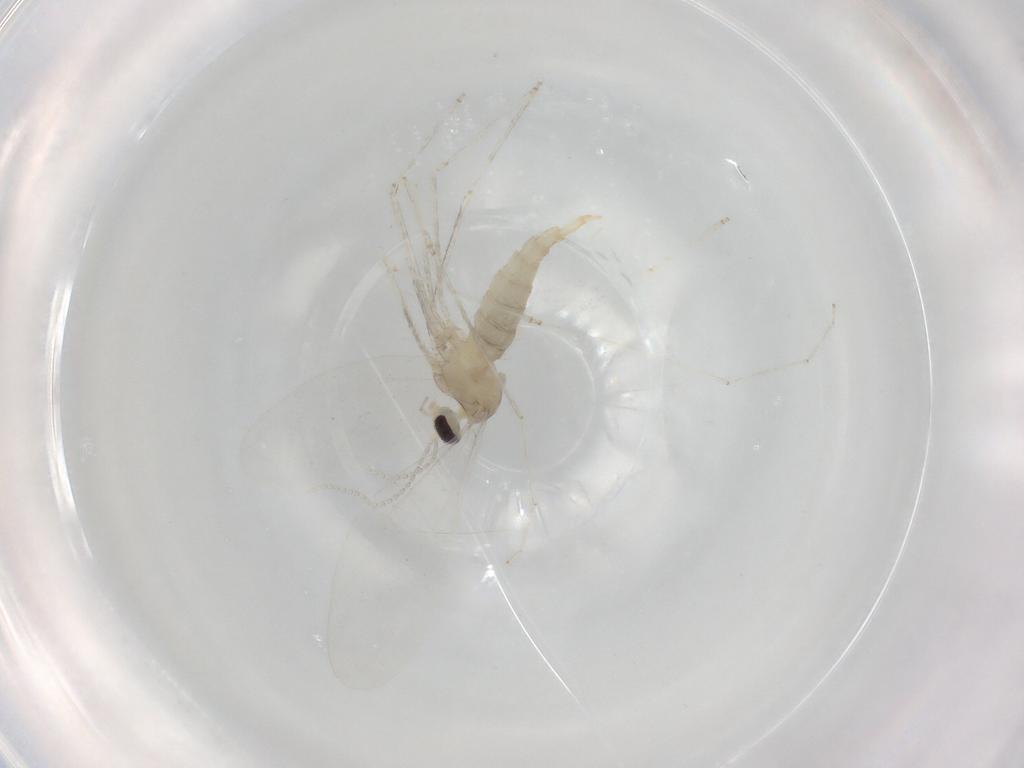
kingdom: Animalia
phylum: Arthropoda
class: Insecta
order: Diptera
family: Cecidomyiidae
